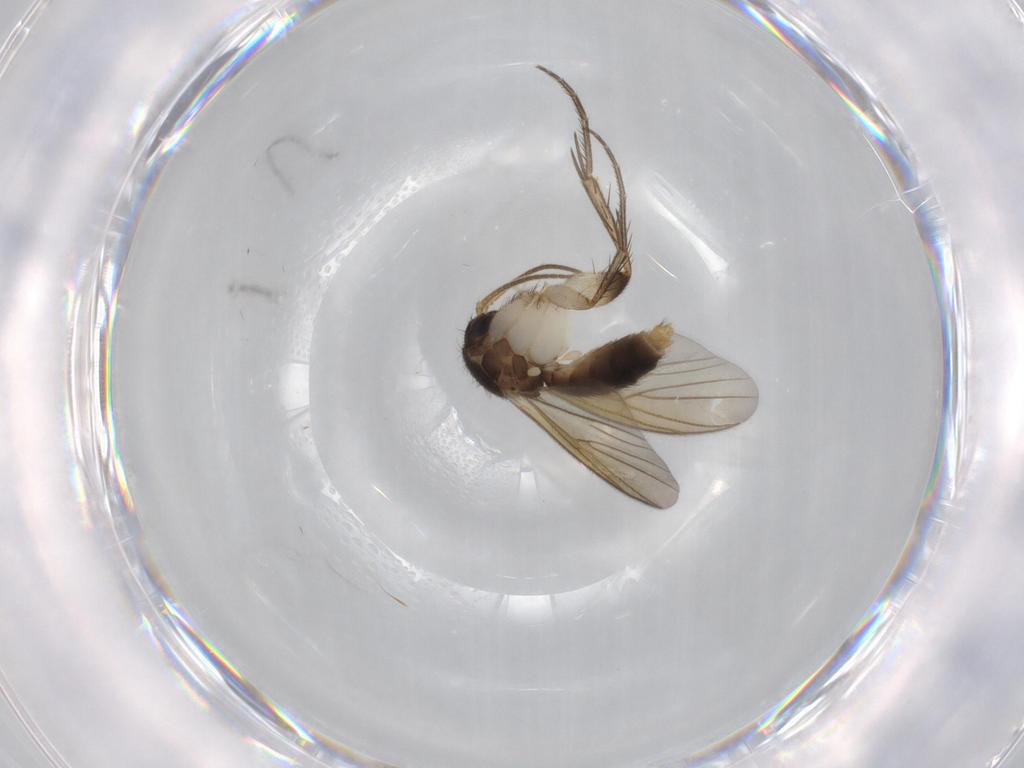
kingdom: Animalia
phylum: Arthropoda
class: Insecta
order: Diptera
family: Mycetophilidae
